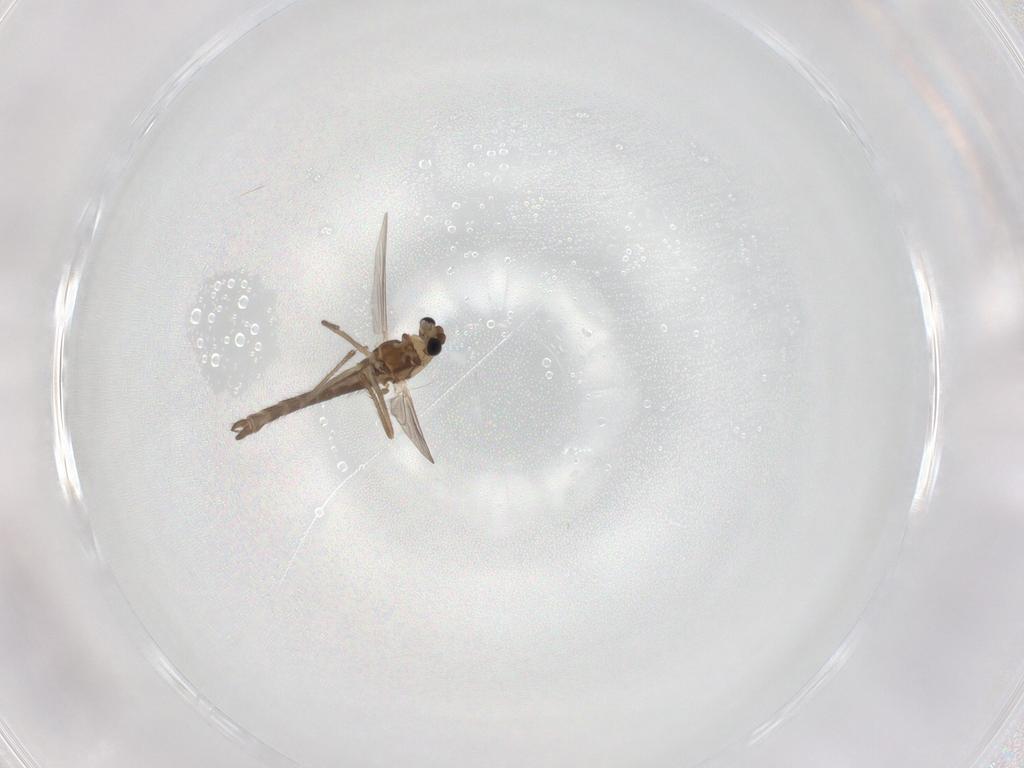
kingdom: Animalia
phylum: Arthropoda
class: Insecta
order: Diptera
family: Chironomidae
